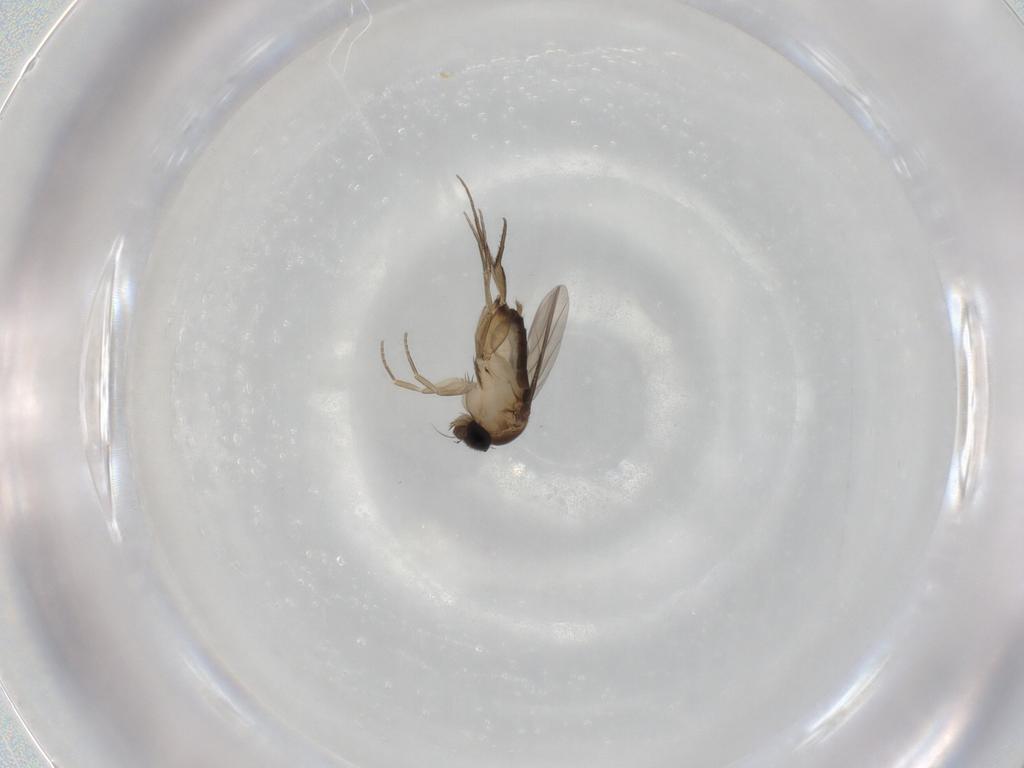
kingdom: Animalia
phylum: Arthropoda
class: Insecta
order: Diptera
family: Phoridae
